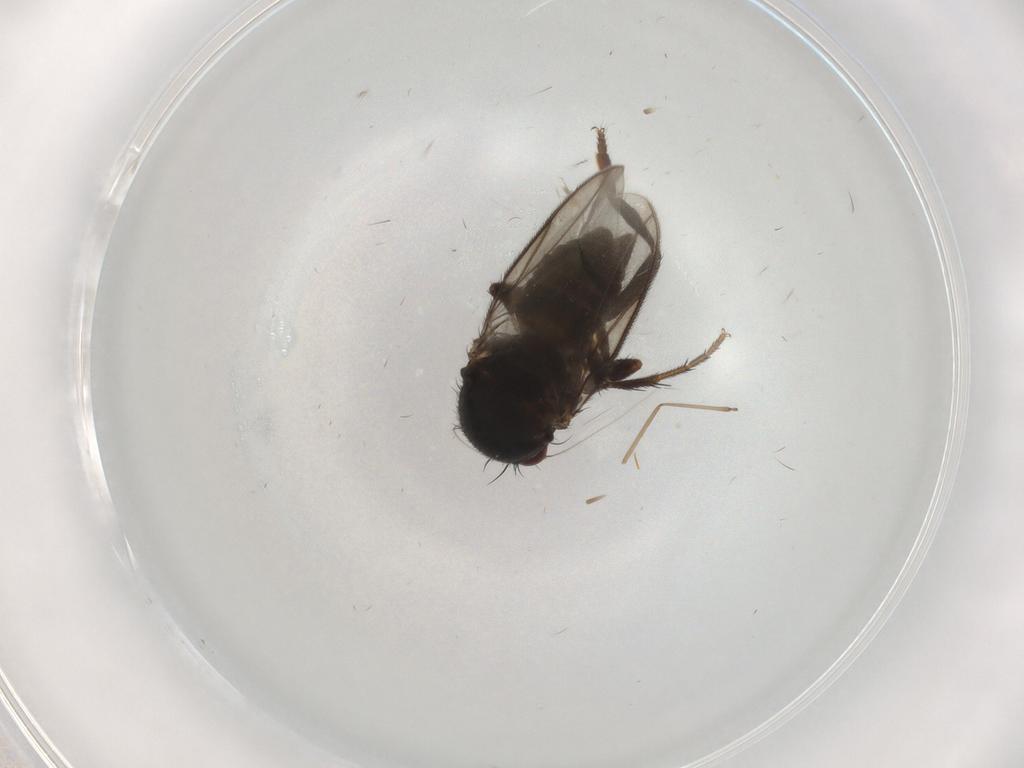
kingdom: Animalia
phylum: Arthropoda
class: Insecta
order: Diptera
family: Sphaeroceridae
